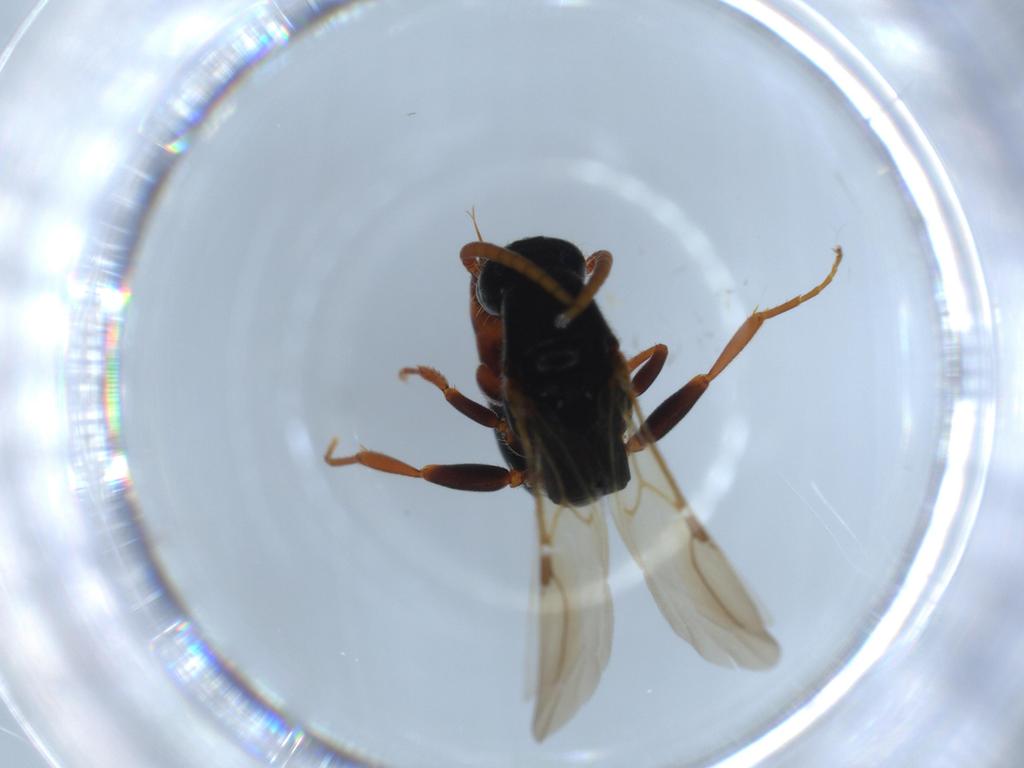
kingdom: Animalia
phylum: Arthropoda
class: Insecta
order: Hymenoptera
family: Bethylidae
